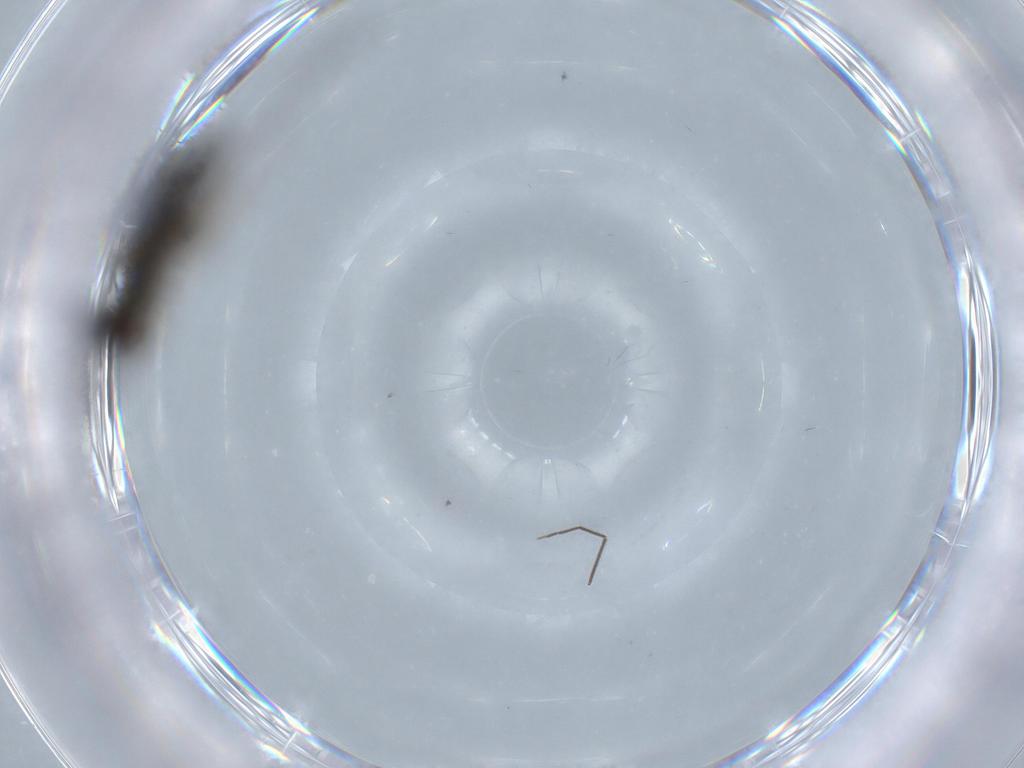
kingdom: Animalia
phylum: Arthropoda
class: Insecta
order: Diptera
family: Sciaridae
